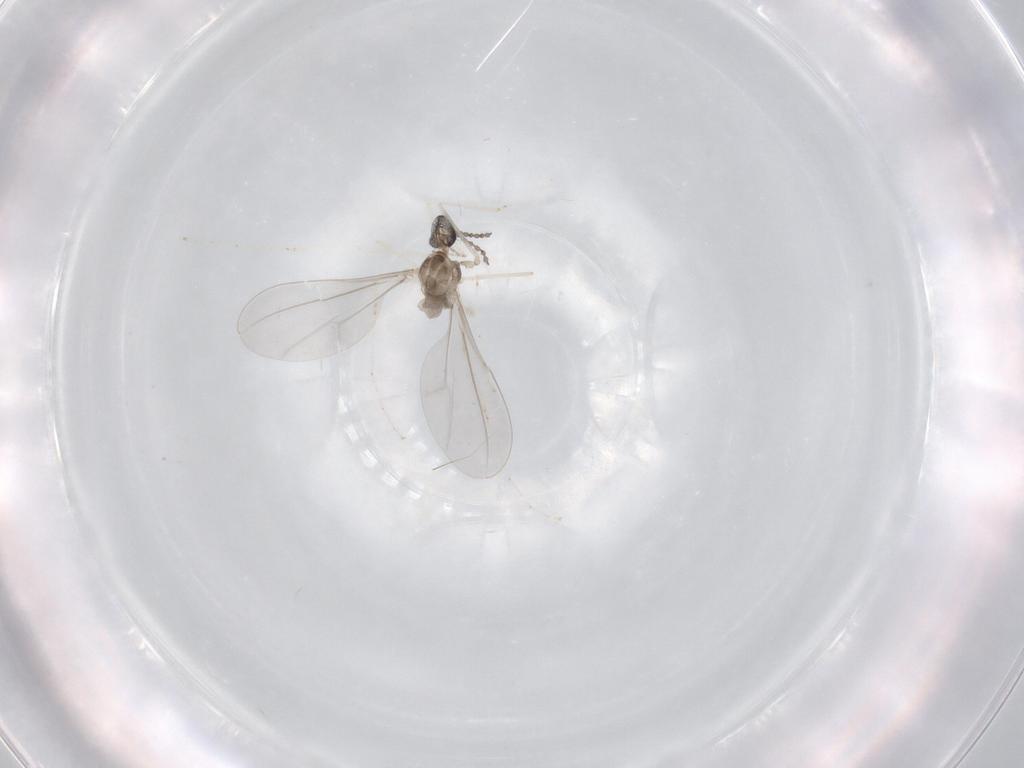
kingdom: Animalia
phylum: Arthropoda
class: Insecta
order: Diptera
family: Cecidomyiidae
